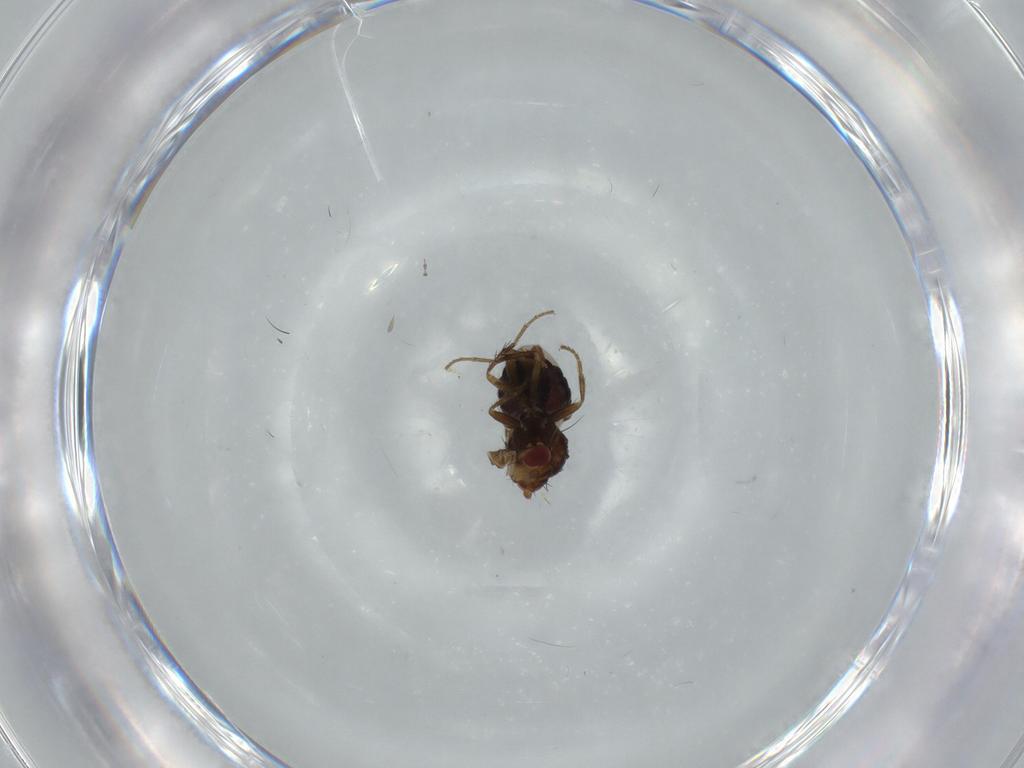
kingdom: Animalia
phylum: Arthropoda
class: Insecta
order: Diptera
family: Sphaeroceridae
